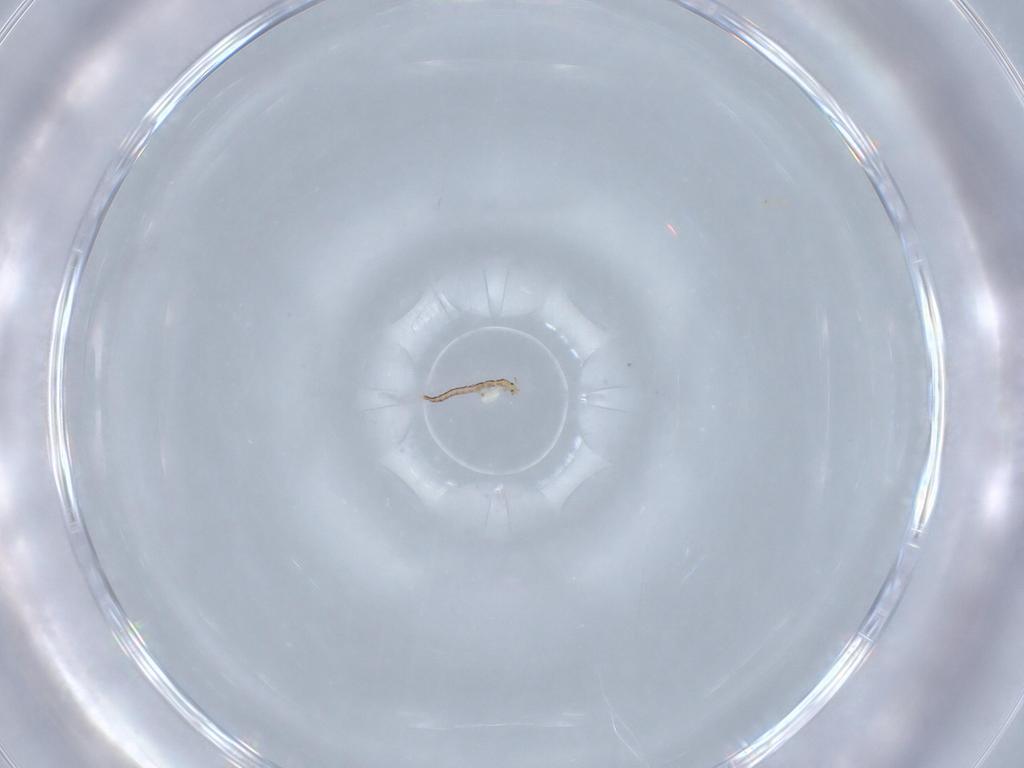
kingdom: Animalia
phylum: Arthropoda
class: Insecta
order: Neuroptera
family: Mantispidae
